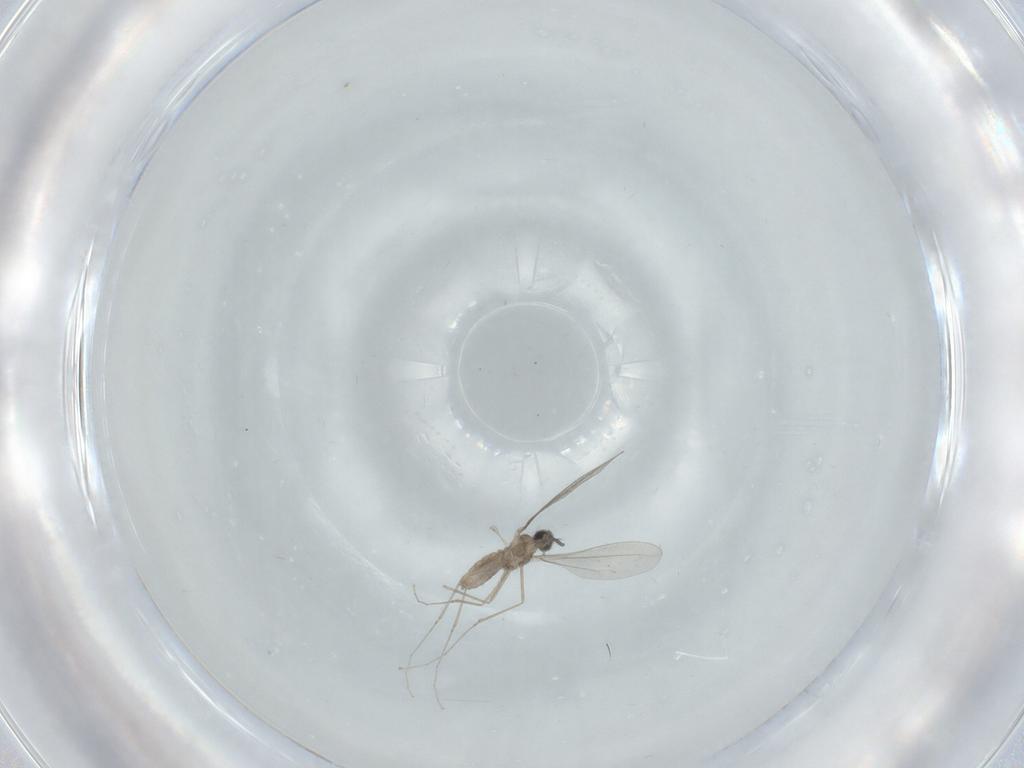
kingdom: Animalia
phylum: Arthropoda
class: Insecta
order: Diptera
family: Cecidomyiidae
